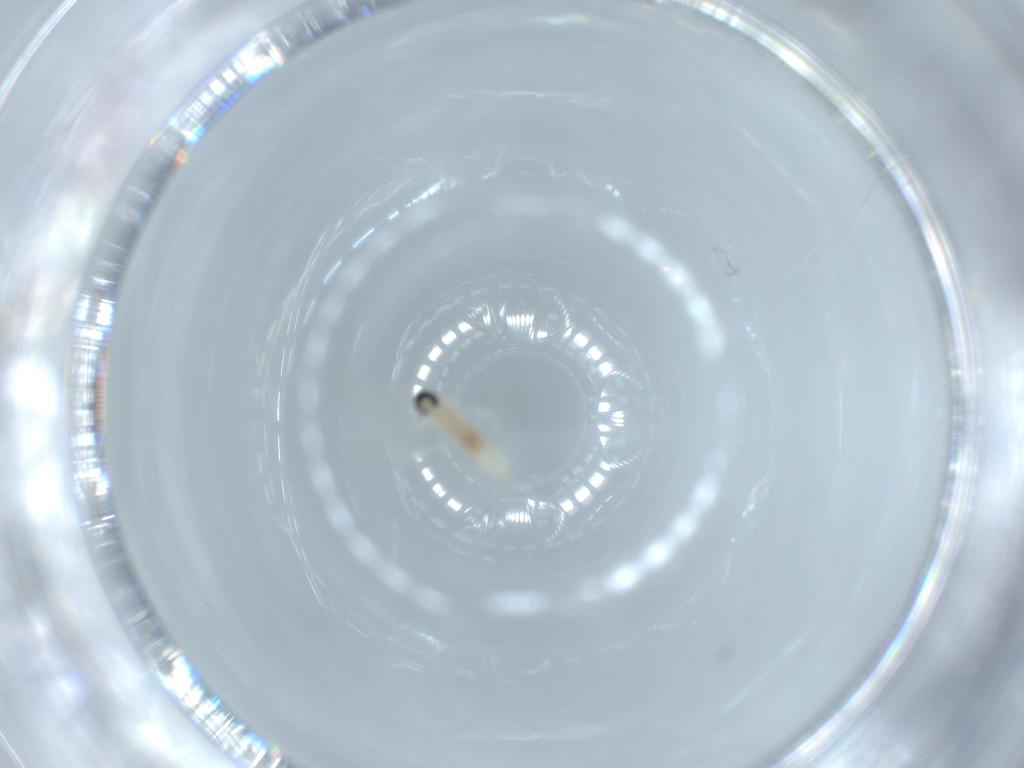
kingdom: Animalia
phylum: Arthropoda
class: Insecta
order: Diptera
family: Cecidomyiidae
